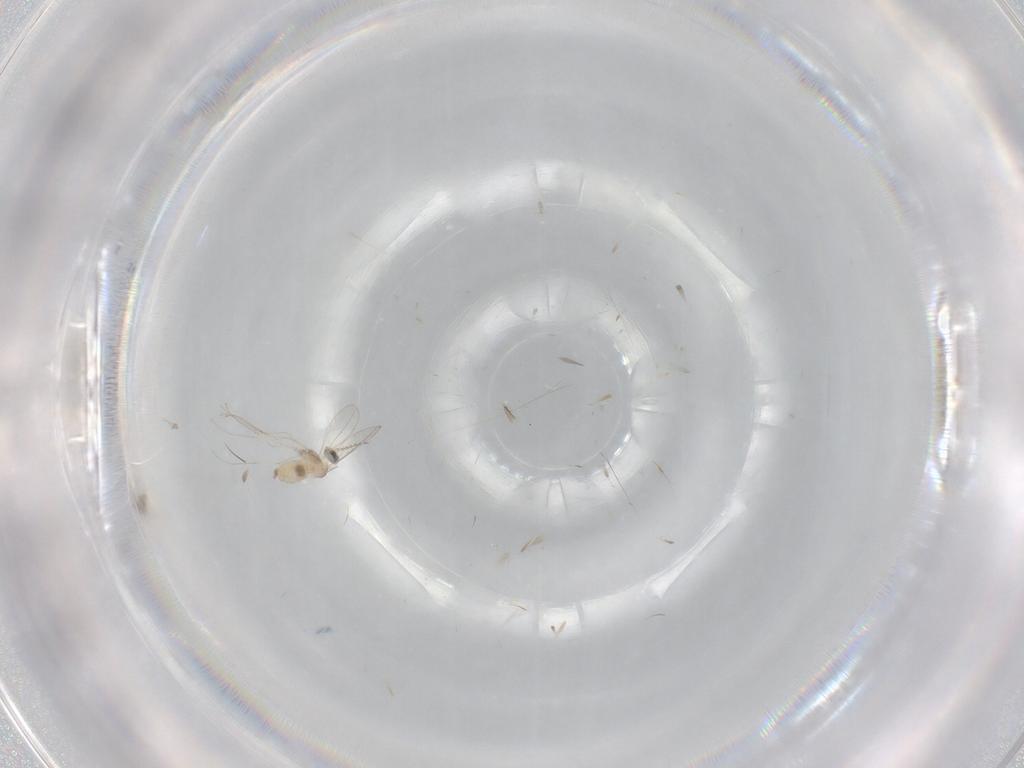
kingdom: Animalia
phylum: Arthropoda
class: Insecta
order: Diptera
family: Cecidomyiidae
